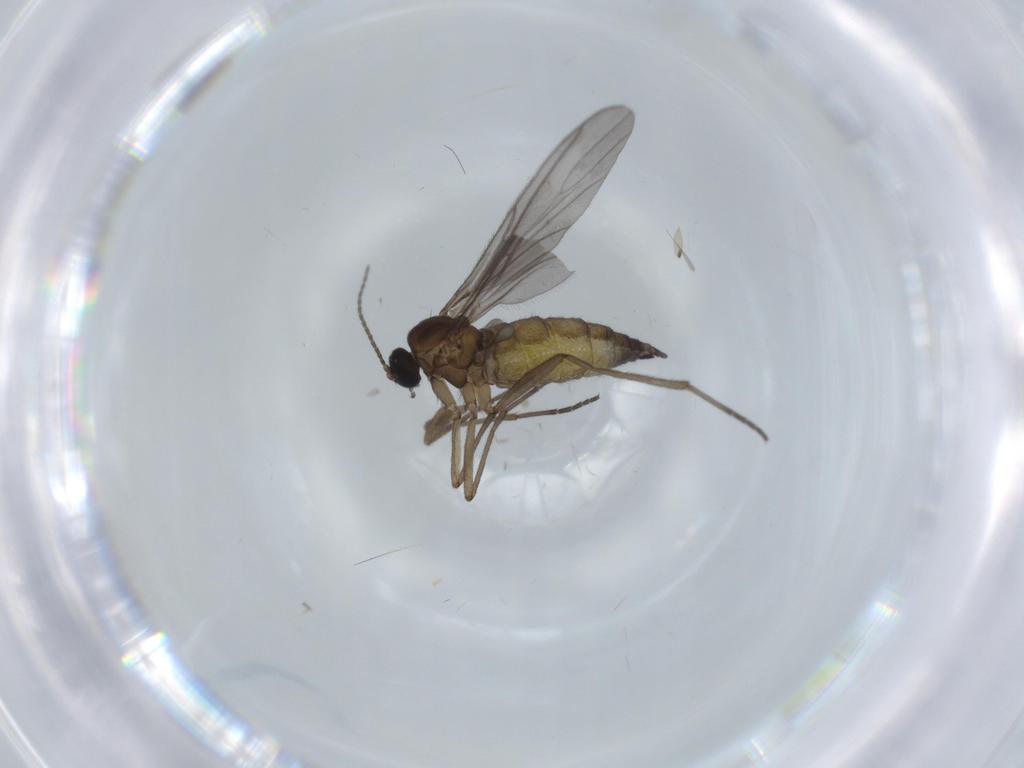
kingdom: Animalia
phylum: Arthropoda
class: Insecta
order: Diptera
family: Sciaridae
